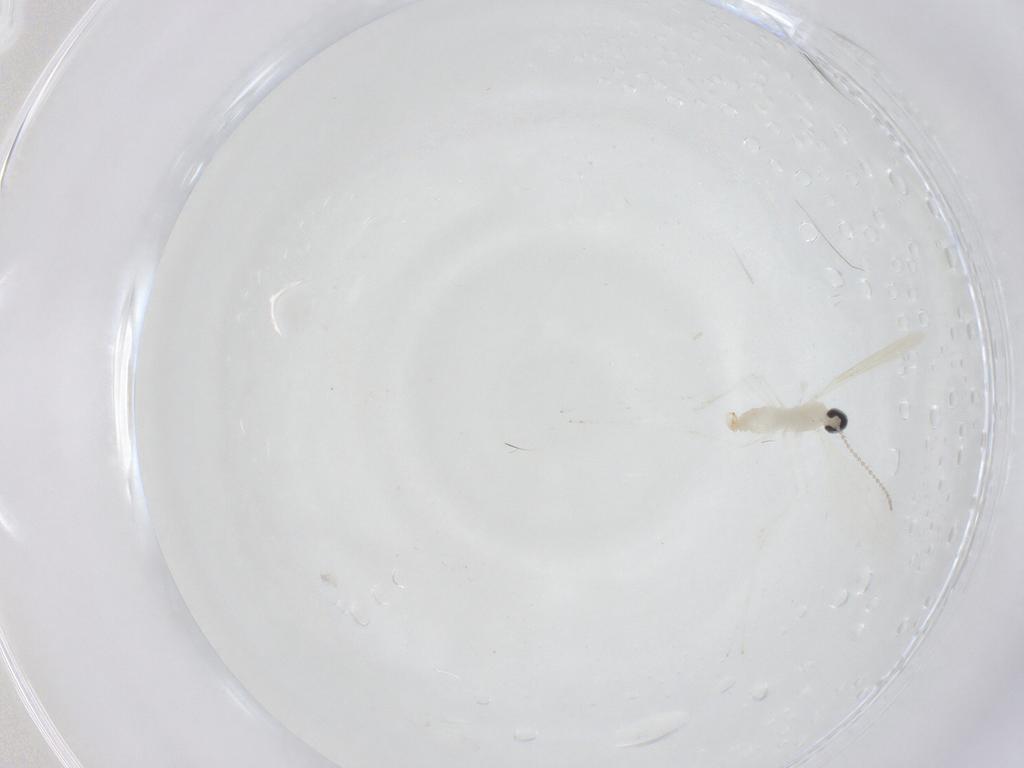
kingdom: Animalia
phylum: Arthropoda
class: Insecta
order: Diptera
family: Cecidomyiidae
